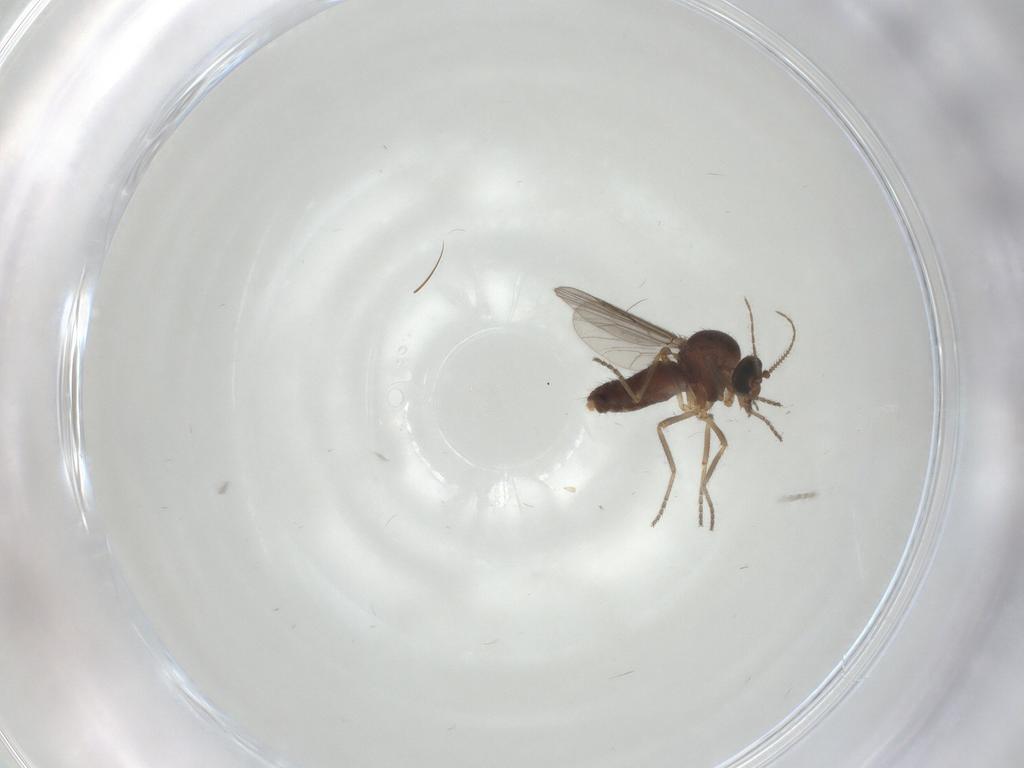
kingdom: Animalia
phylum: Arthropoda
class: Insecta
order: Diptera
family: Ceratopogonidae
